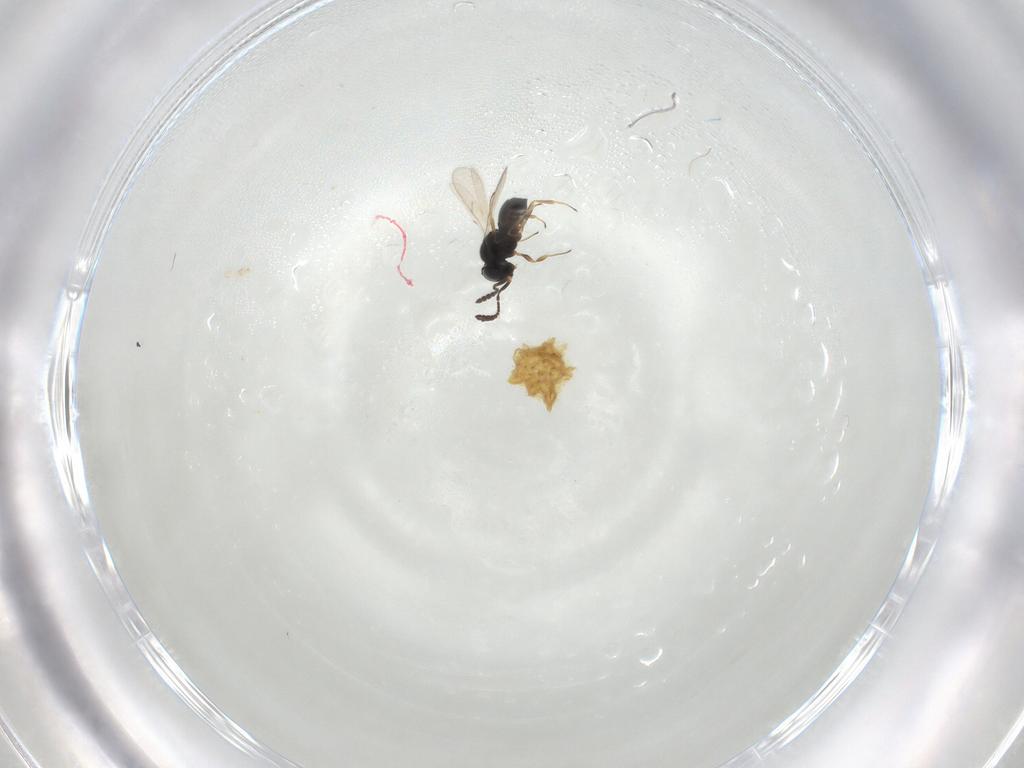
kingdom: Animalia
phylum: Arthropoda
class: Insecta
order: Hymenoptera
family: Scelionidae
